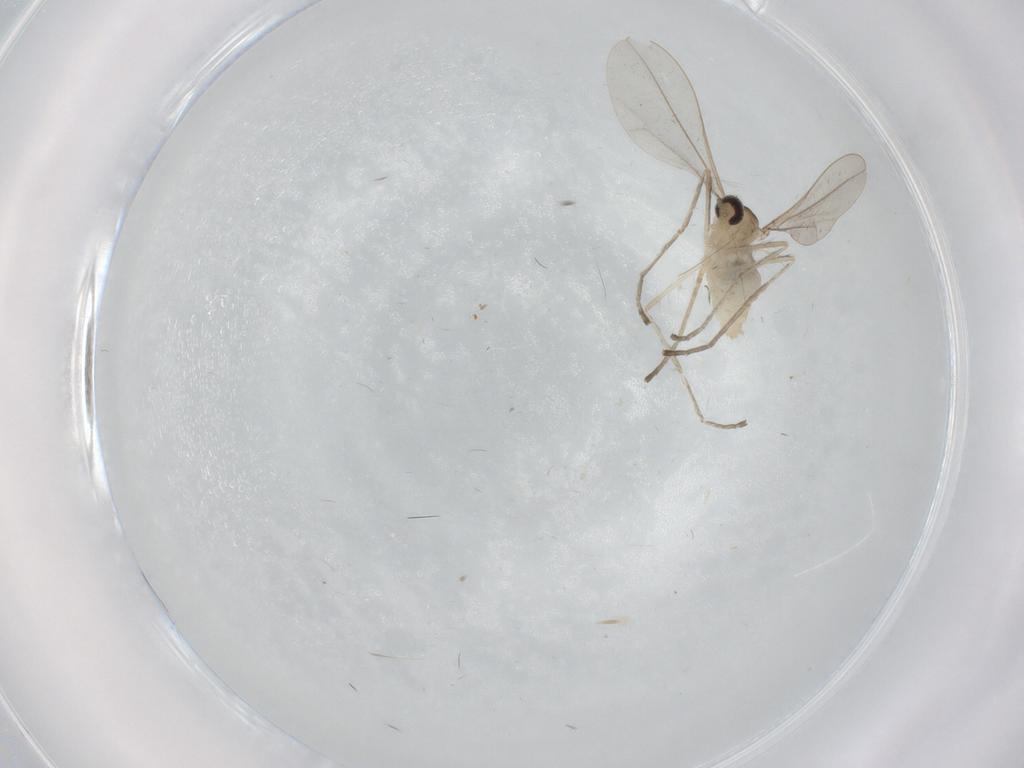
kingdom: Animalia
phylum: Arthropoda
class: Insecta
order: Diptera
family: Cecidomyiidae
